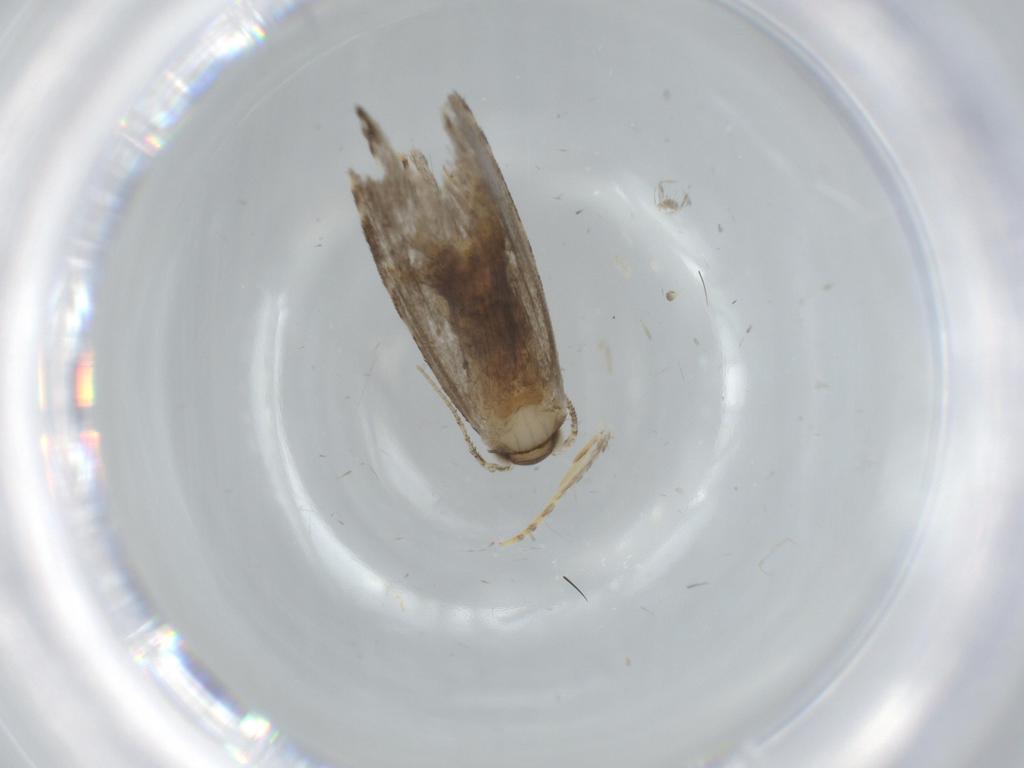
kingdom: Animalia
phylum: Arthropoda
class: Insecta
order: Lepidoptera
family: Tineidae
